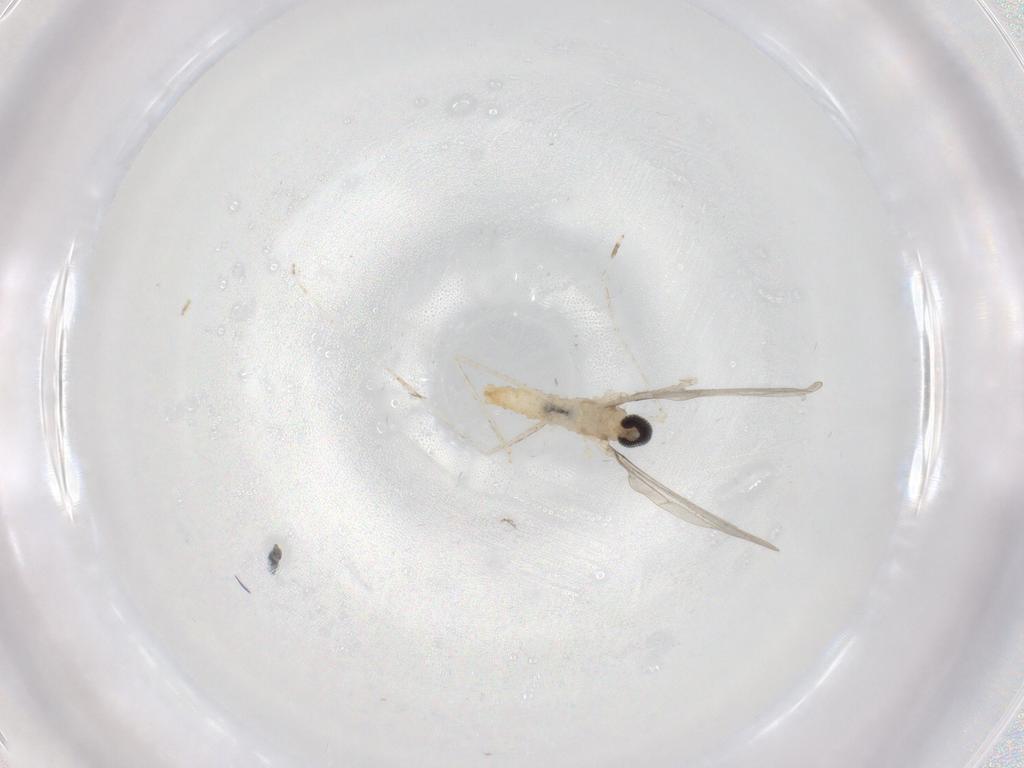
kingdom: Animalia
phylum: Arthropoda
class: Insecta
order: Diptera
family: Cecidomyiidae
